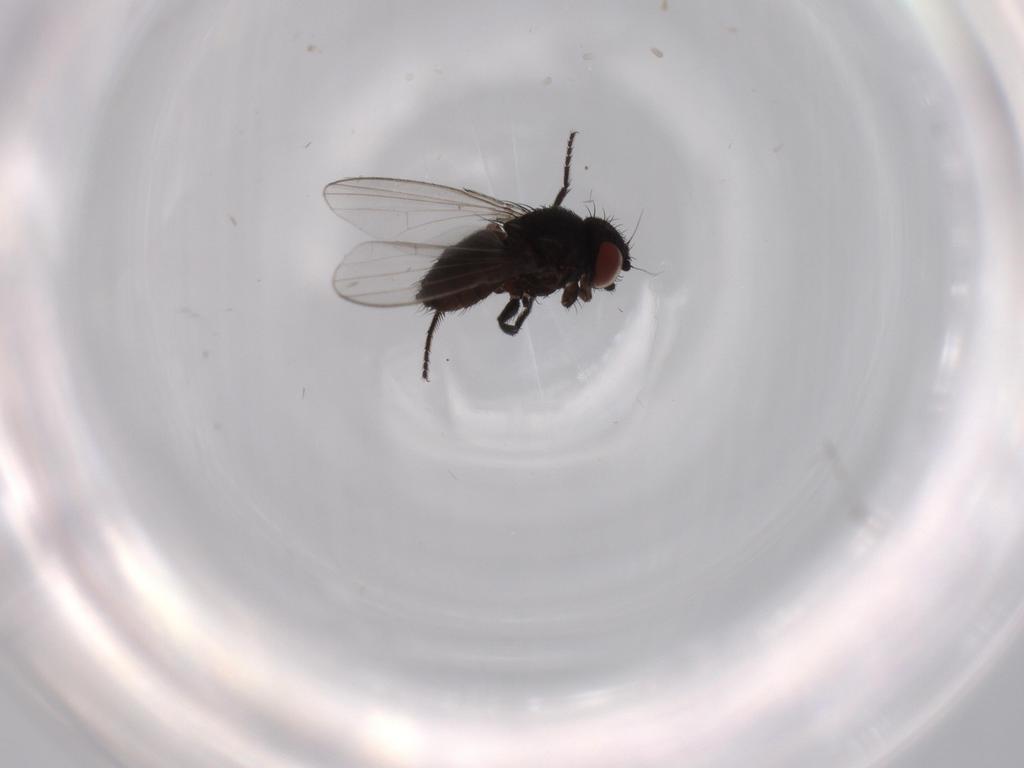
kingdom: Animalia
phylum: Arthropoda
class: Insecta
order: Diptera
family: Milichiidae
